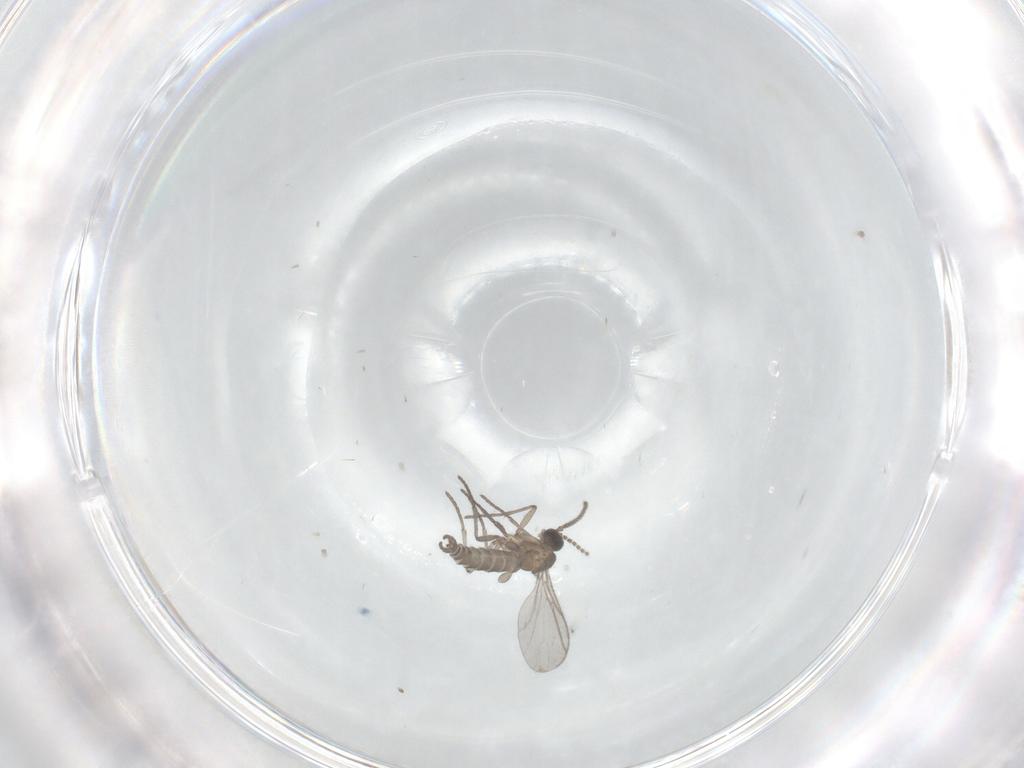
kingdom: Animalia
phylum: Arthropoda
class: Insecta
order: Diptera
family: Sciaridae
